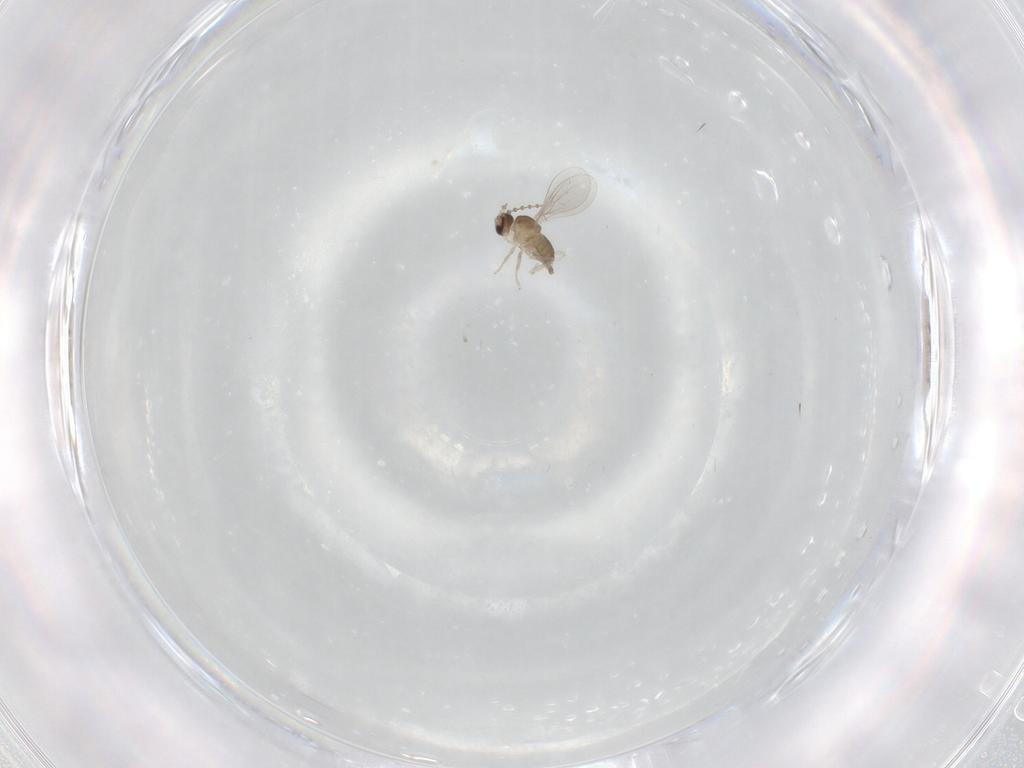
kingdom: Animalia
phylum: Arthropoda
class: Insecta
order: Diptera
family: Cecidomyiidae
